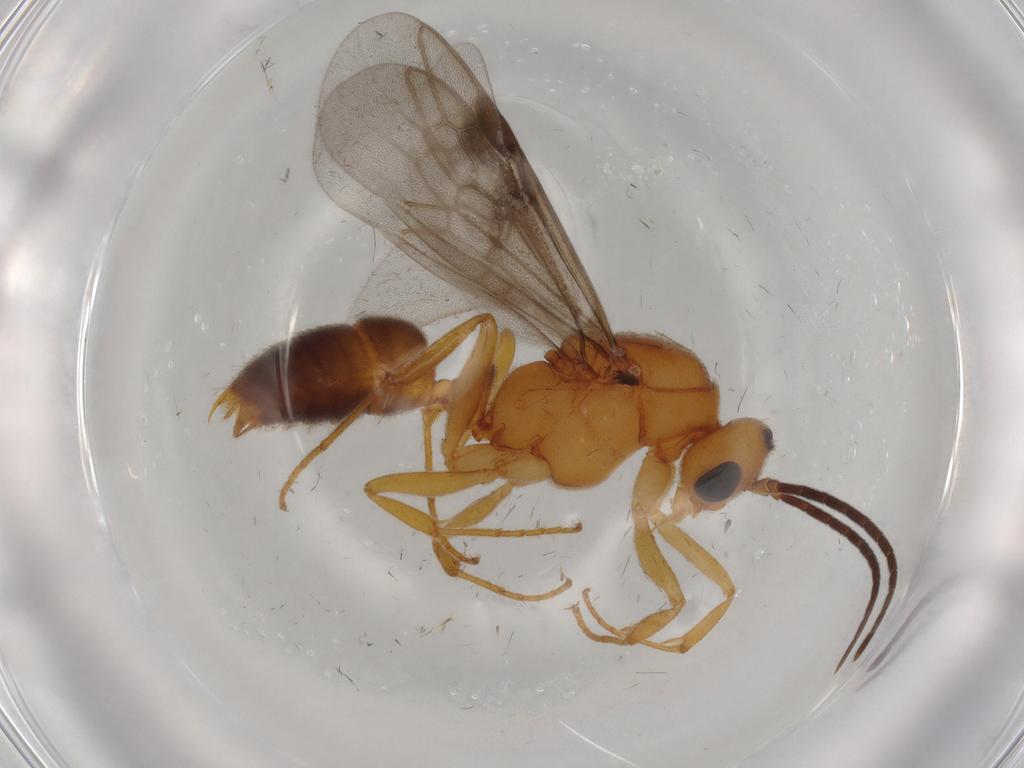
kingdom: Animalia
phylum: Arthropoda
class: Insecta
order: Hymenoptera
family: Formicidae
